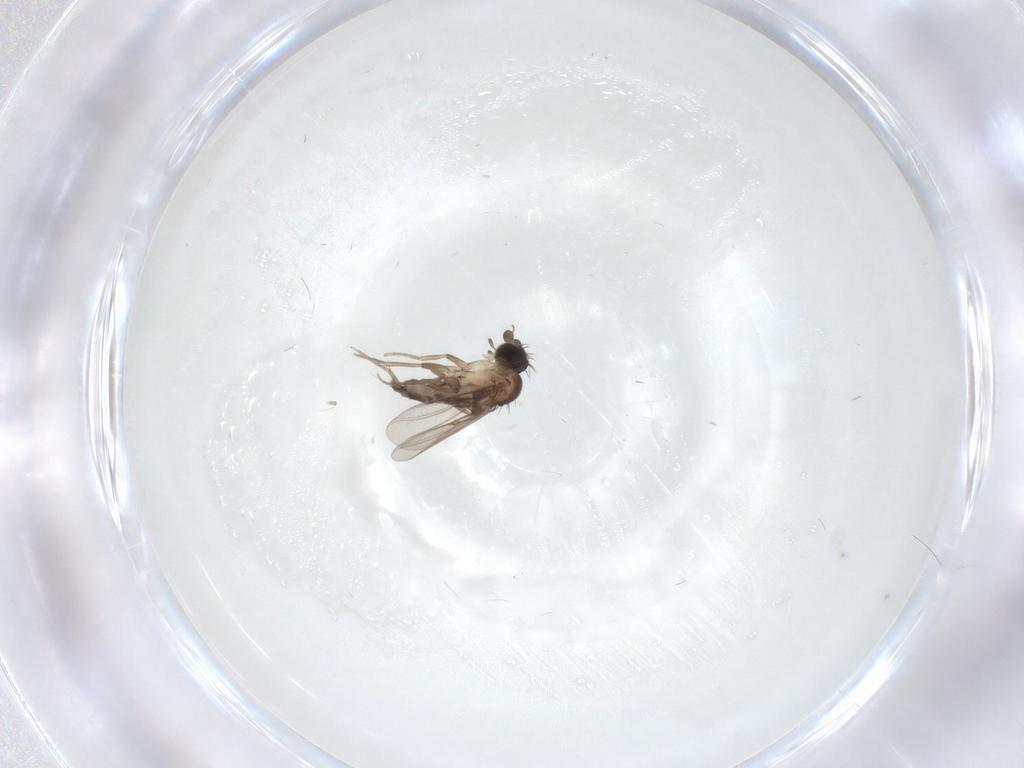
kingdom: Animalia
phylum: Arthropoda
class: Insecta
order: Diptera
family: Phoridae
